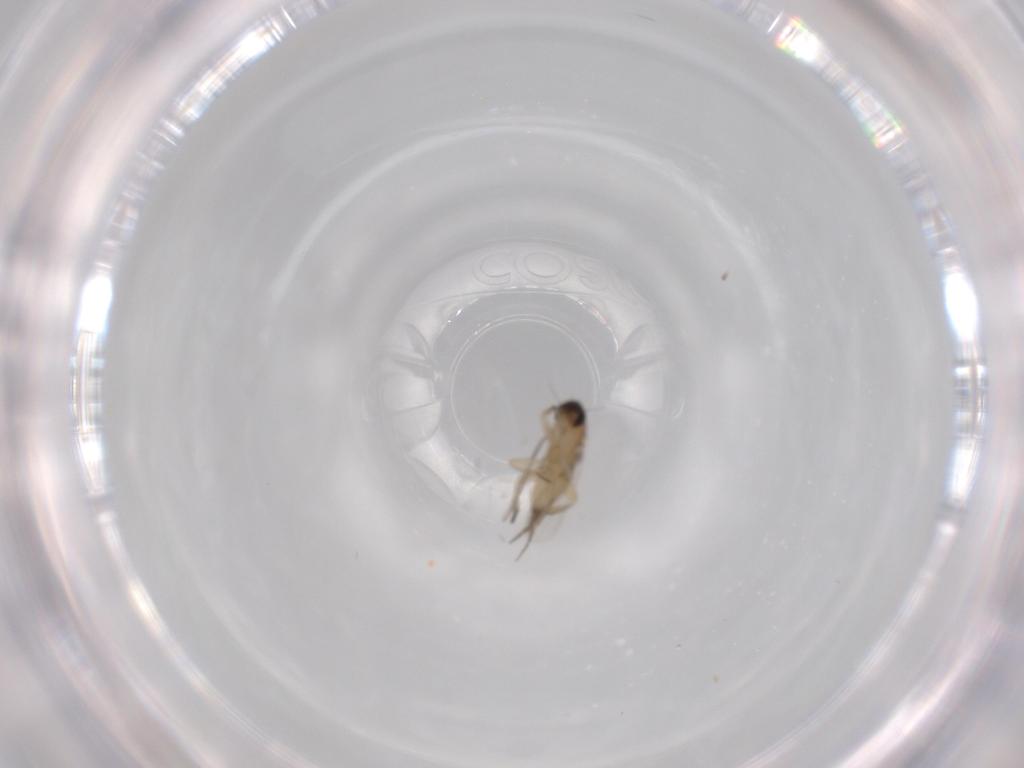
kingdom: Animalia
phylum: Arthropoda
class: Insecta
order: Diptera
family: Phoridae
